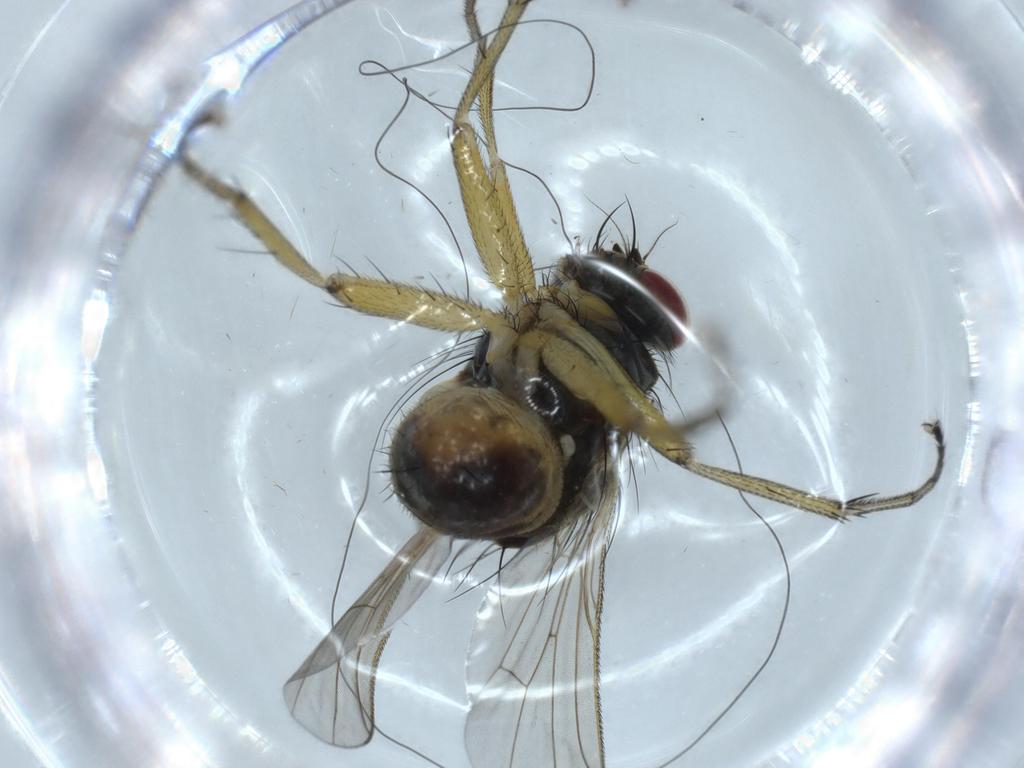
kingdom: Animalia
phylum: Arthropoda
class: Insecta
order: Diptera
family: Muscidae
